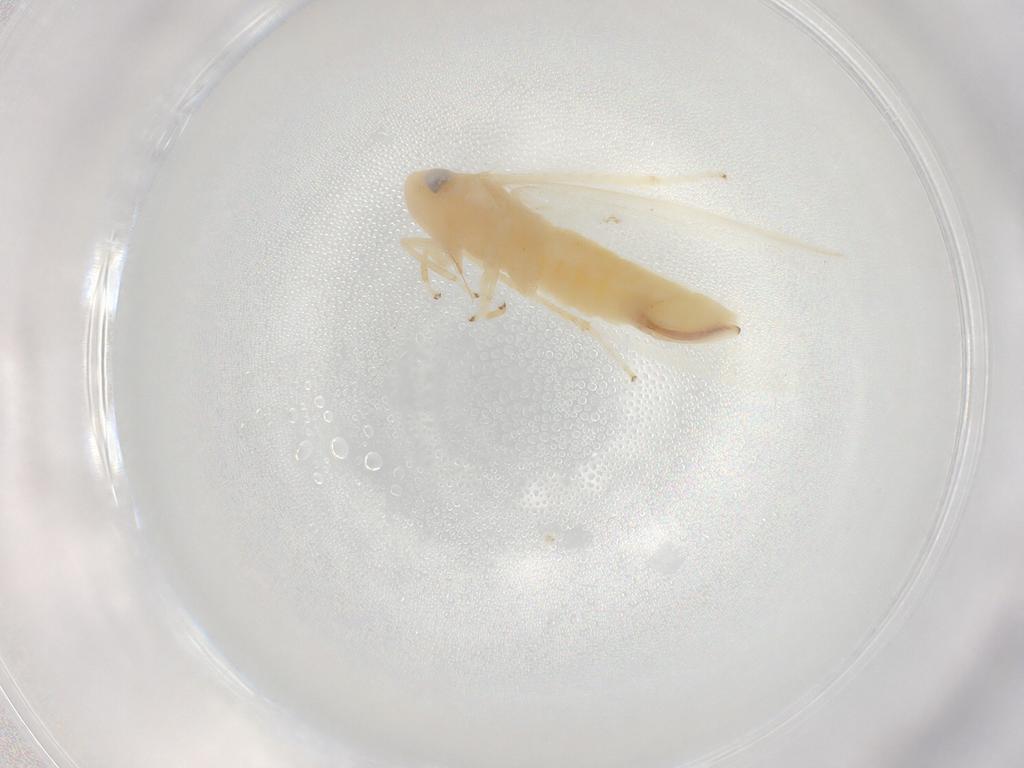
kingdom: Animalia
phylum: Arthropoda
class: Insecta
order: Hemiptera
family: Cicadellidae
